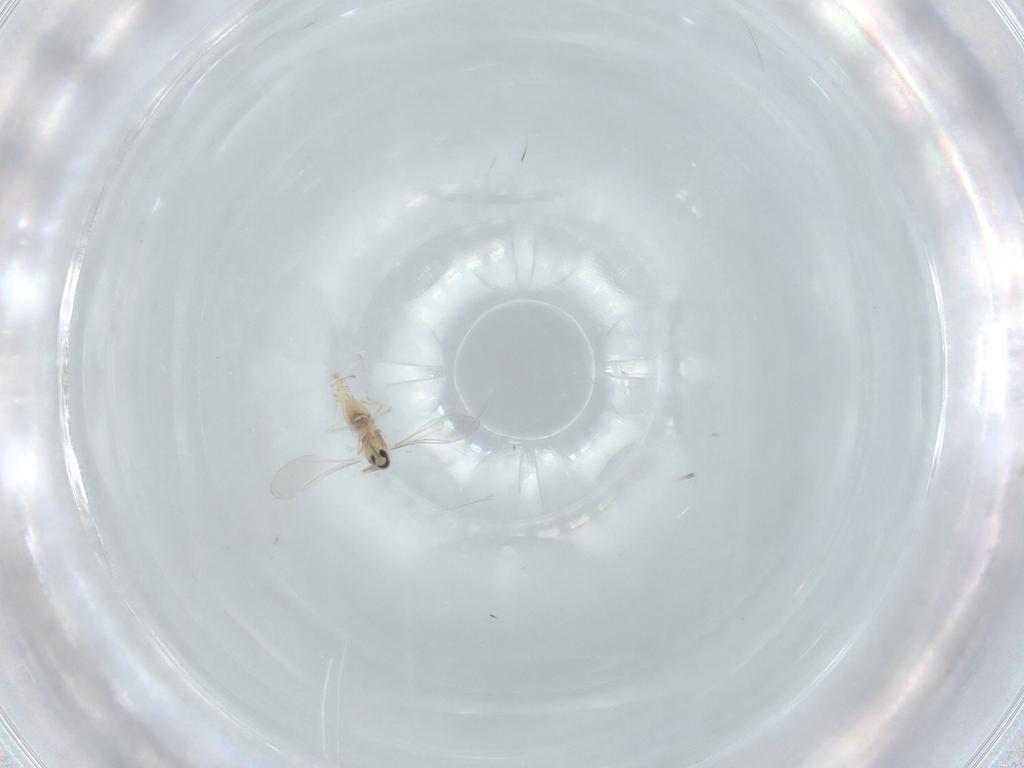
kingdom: Animalia
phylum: Arthropoda
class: Insecta
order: Diptera
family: Cecidomyiidae
